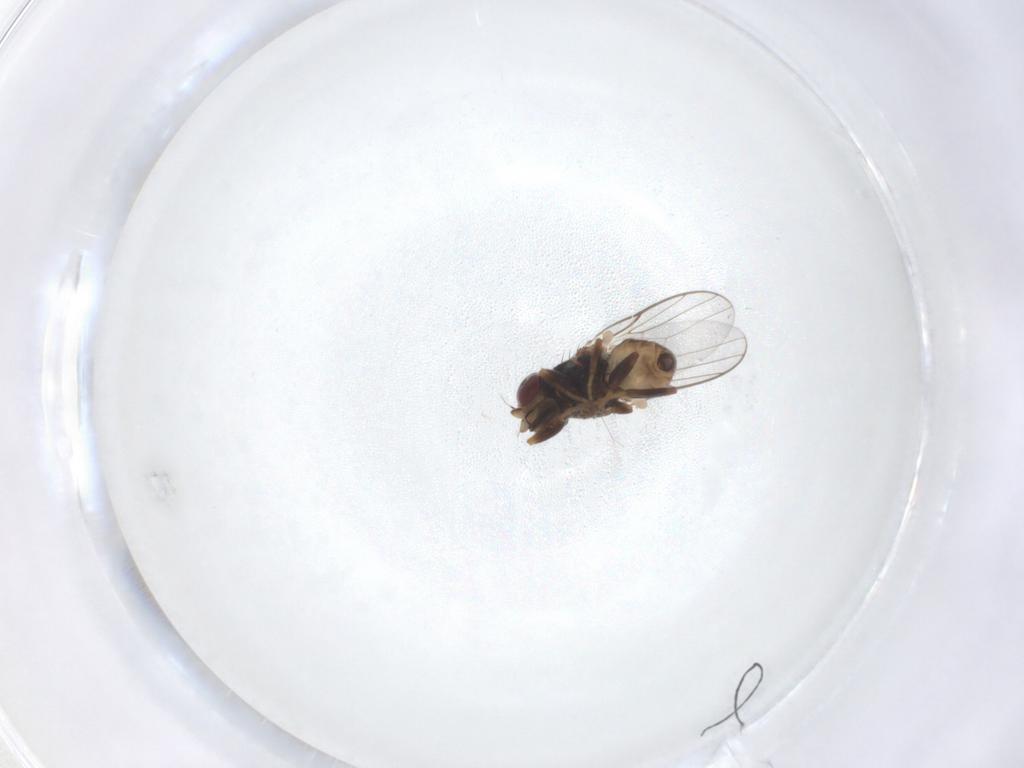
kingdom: Animalia
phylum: Arthropoda
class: Insecta
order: Diptera
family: Chloropidae
